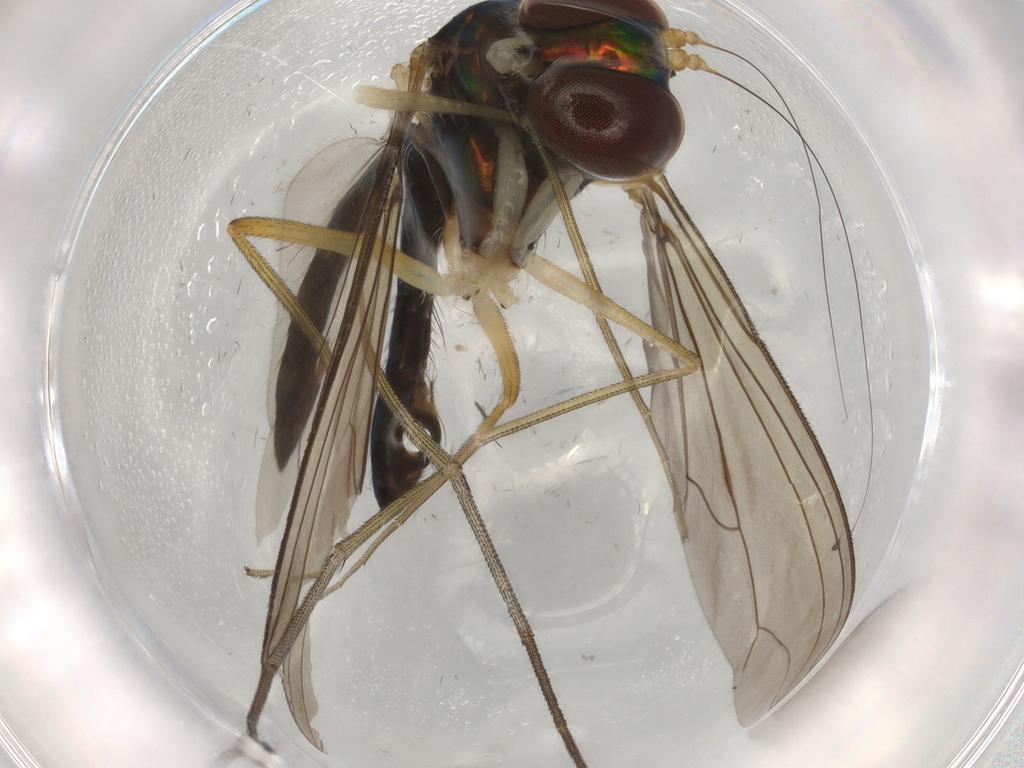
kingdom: Animalia
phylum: Arthropoda
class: Insecta
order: Diptera
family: Dolichopodidae
